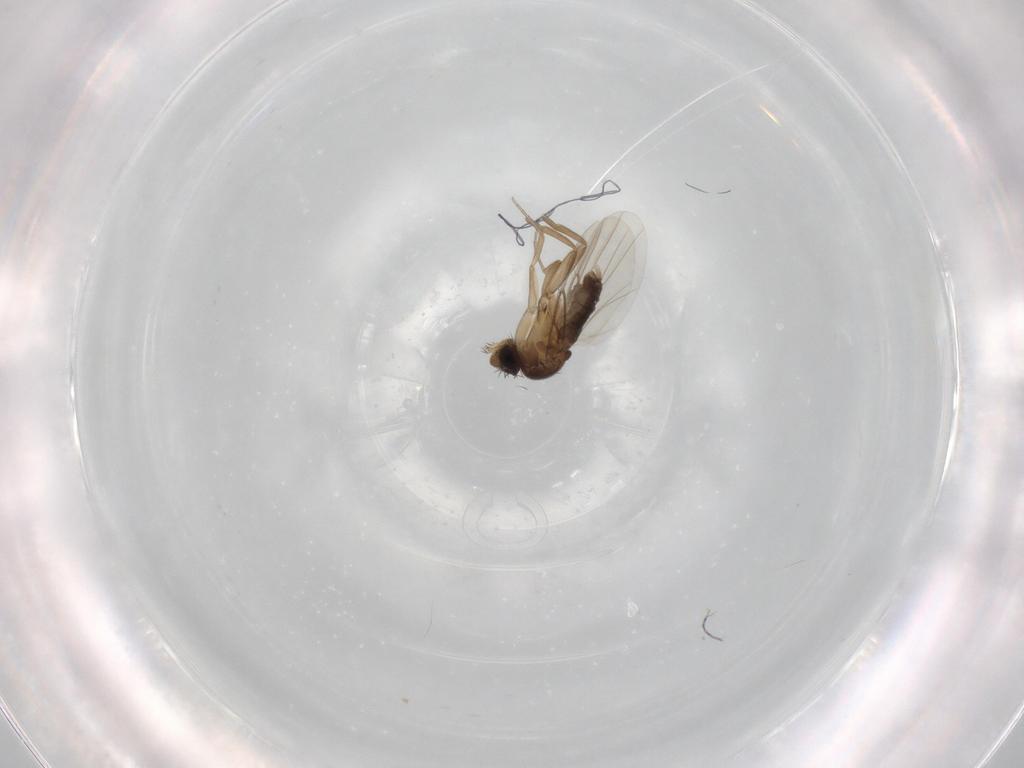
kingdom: Animalia
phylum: Arthropoda
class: Insecta
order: Diptera
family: Phoridae
